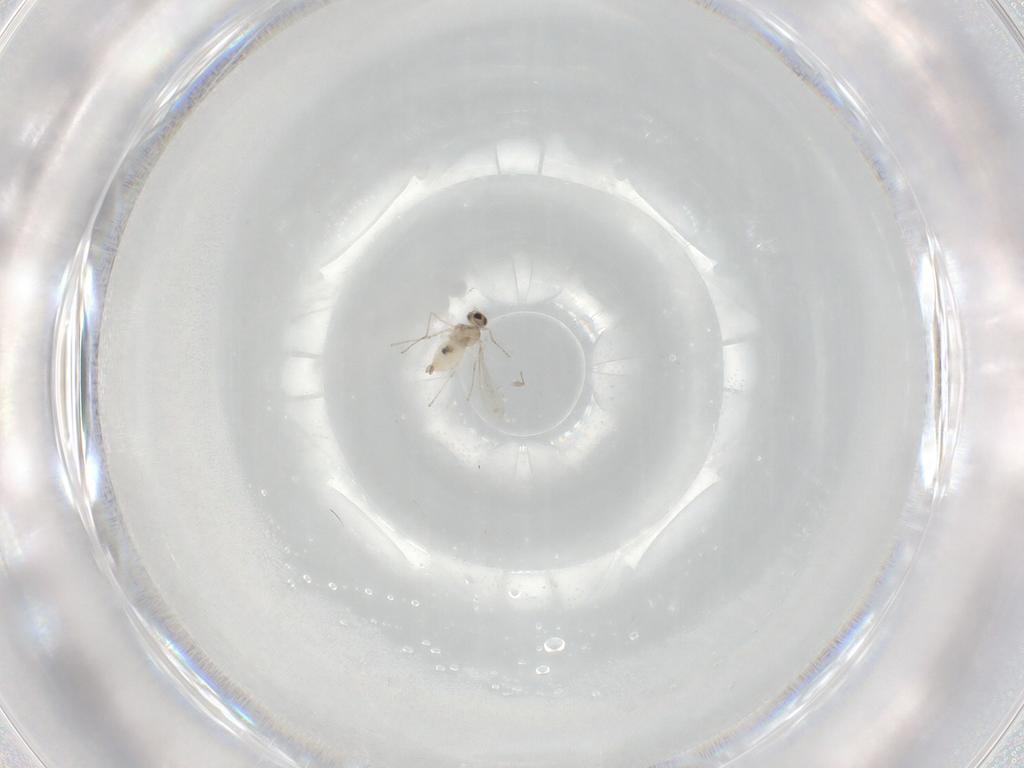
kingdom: Animalia
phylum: Arthropoda
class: Insecta
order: Diptera
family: Cecidomyiidae
